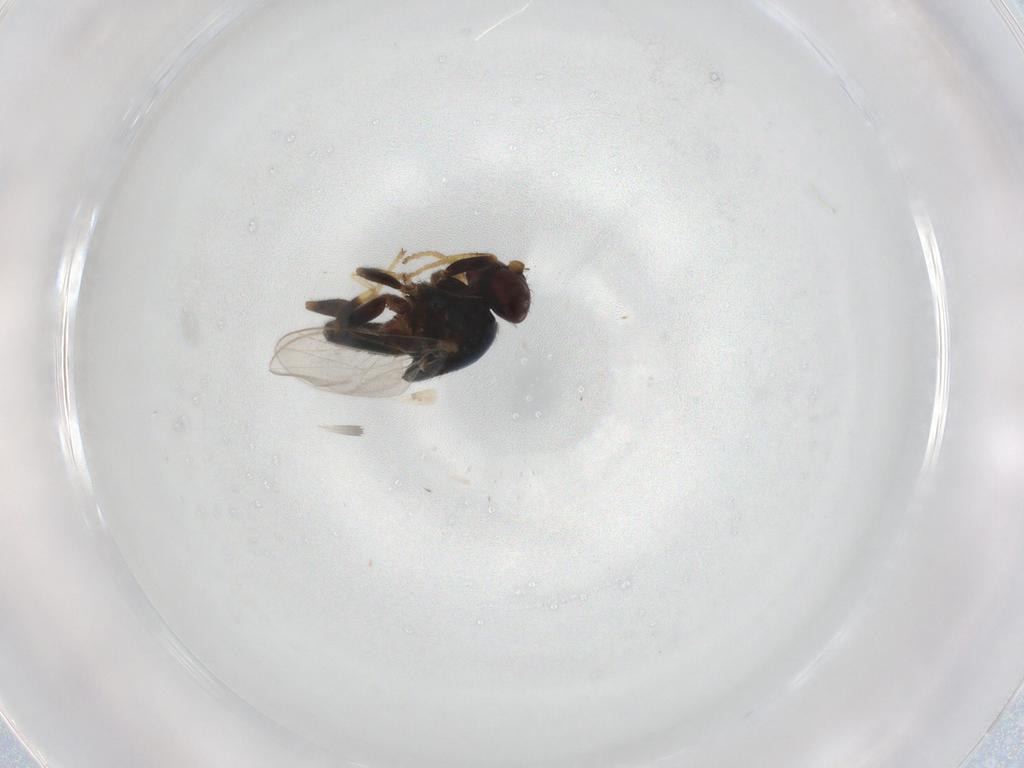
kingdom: Animalia
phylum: Arthropoda
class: Insecta
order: Diptera
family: Chloropidae
